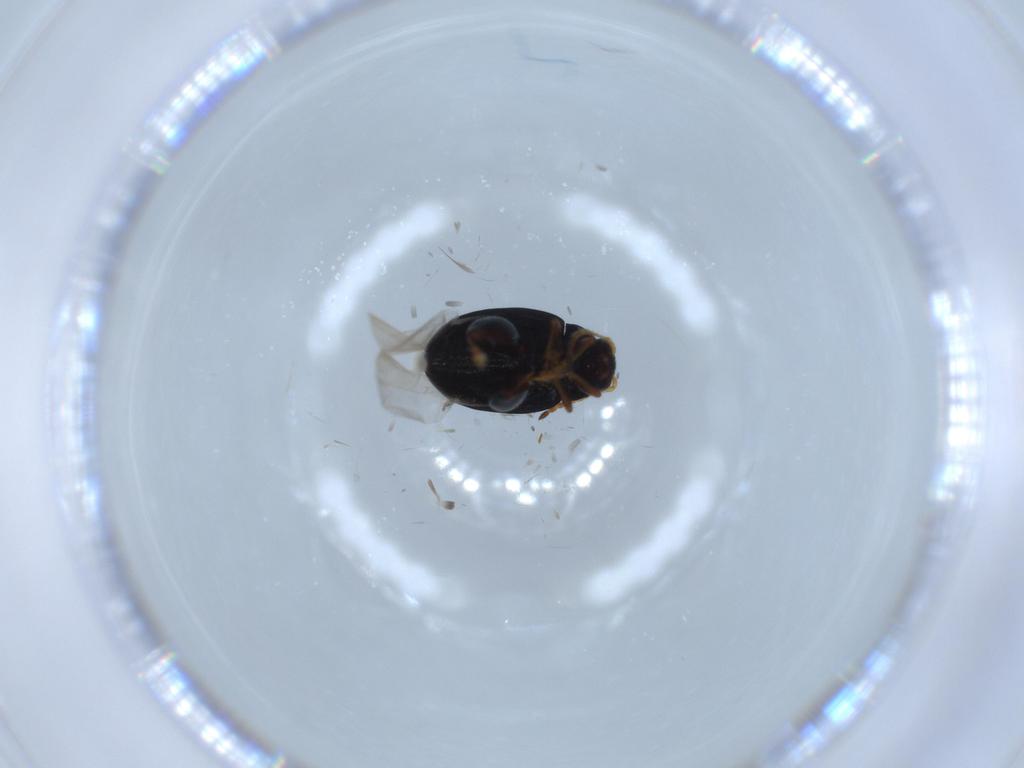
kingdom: Animalia
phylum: Arthropoda
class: Insecta
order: Coleoptera
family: Chrysomelidae
